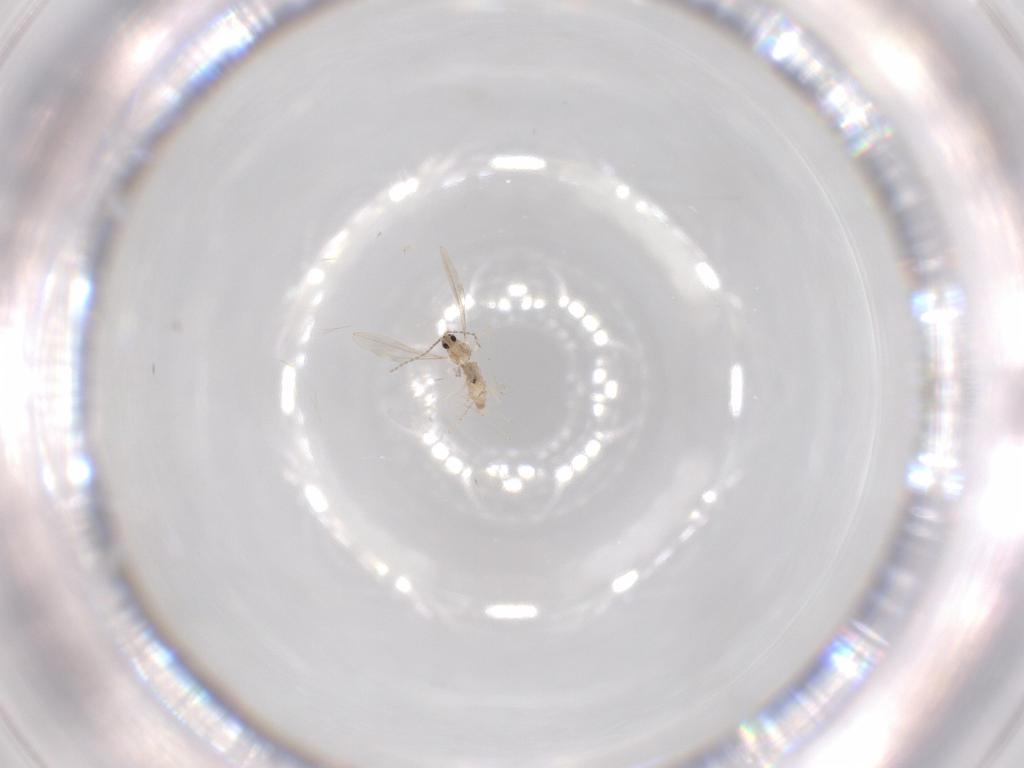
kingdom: Animalia
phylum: Arthropoda
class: Insecta
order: Diptera
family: Cecidomyiidae
